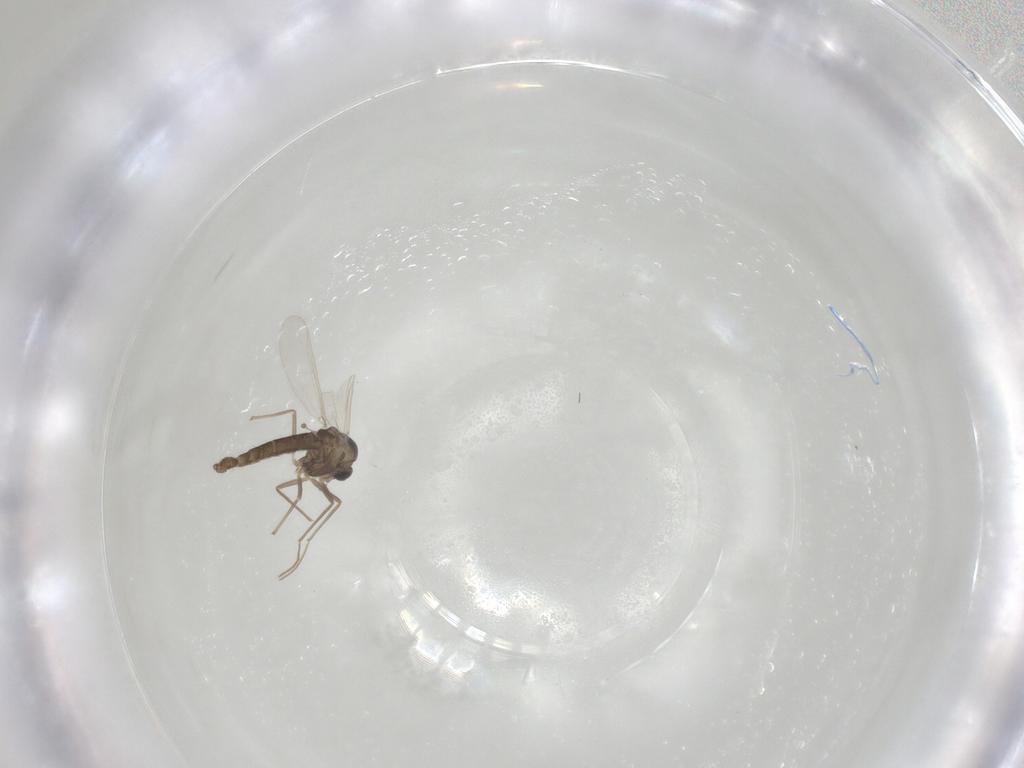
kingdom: Animalia
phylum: Arthropoda
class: Insecta
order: Diptera
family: Chironomidae
